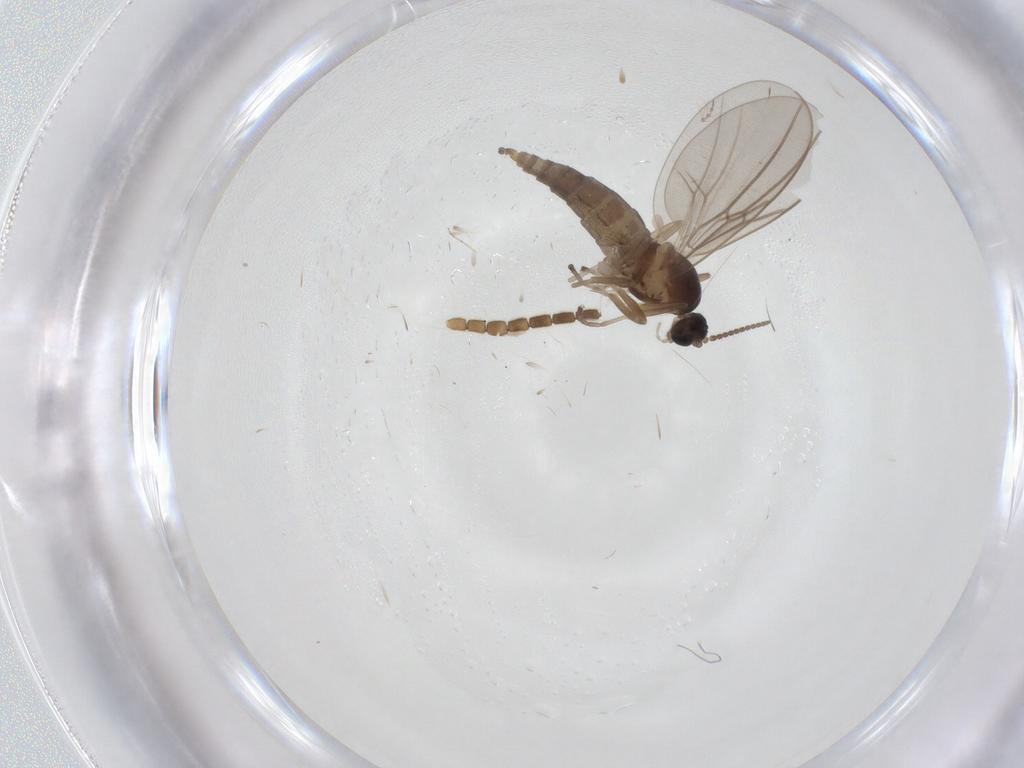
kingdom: Animalia
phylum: Arthropoda
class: Insecta
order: Diptera
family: Cecidomyiidae
